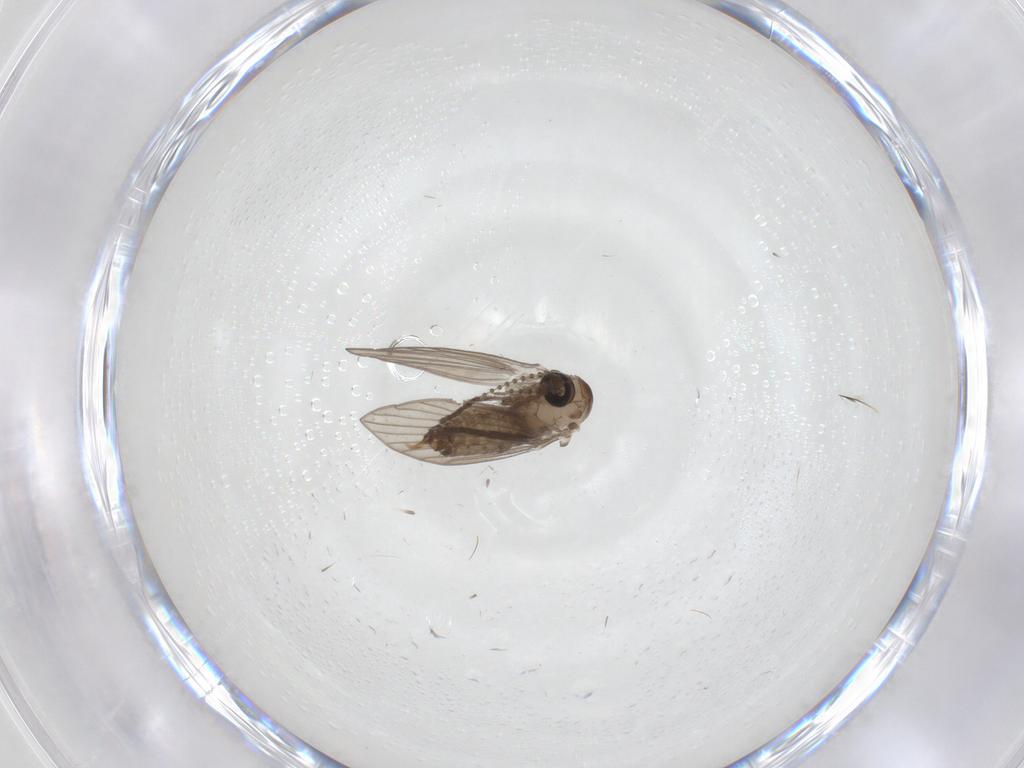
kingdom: Animalia
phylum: Arthropoda
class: Insecta
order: Diptera
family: Psychodidae
